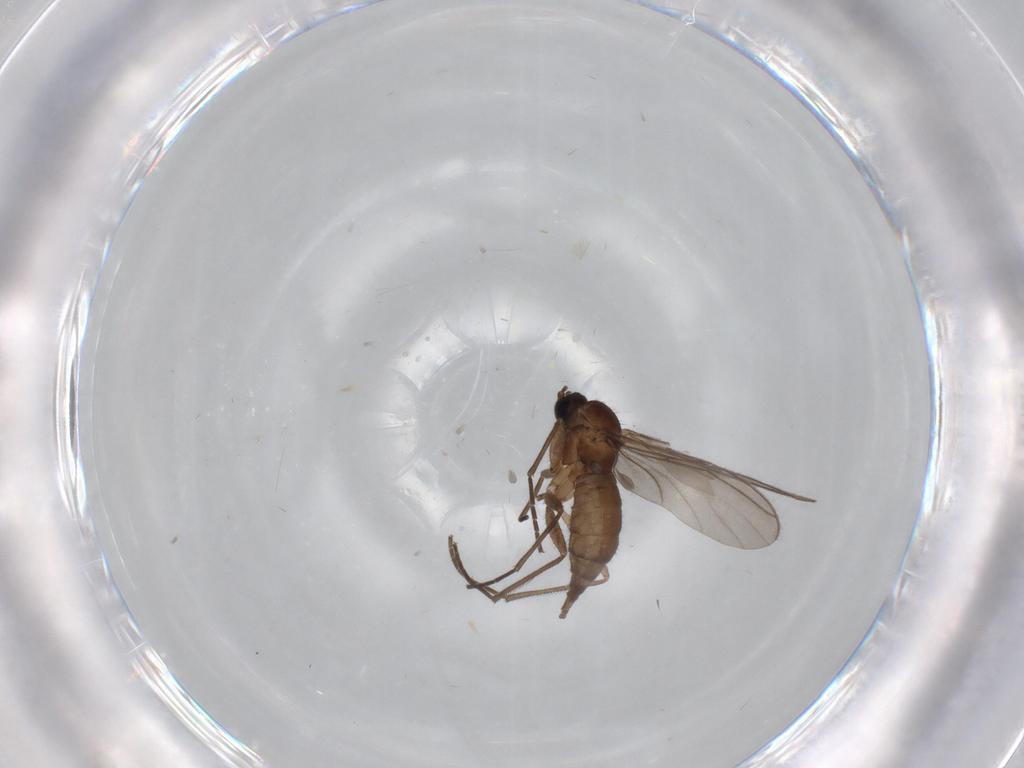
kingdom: Animalia
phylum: Arthropoda
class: Insecta
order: Diptera
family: Sciaridae
